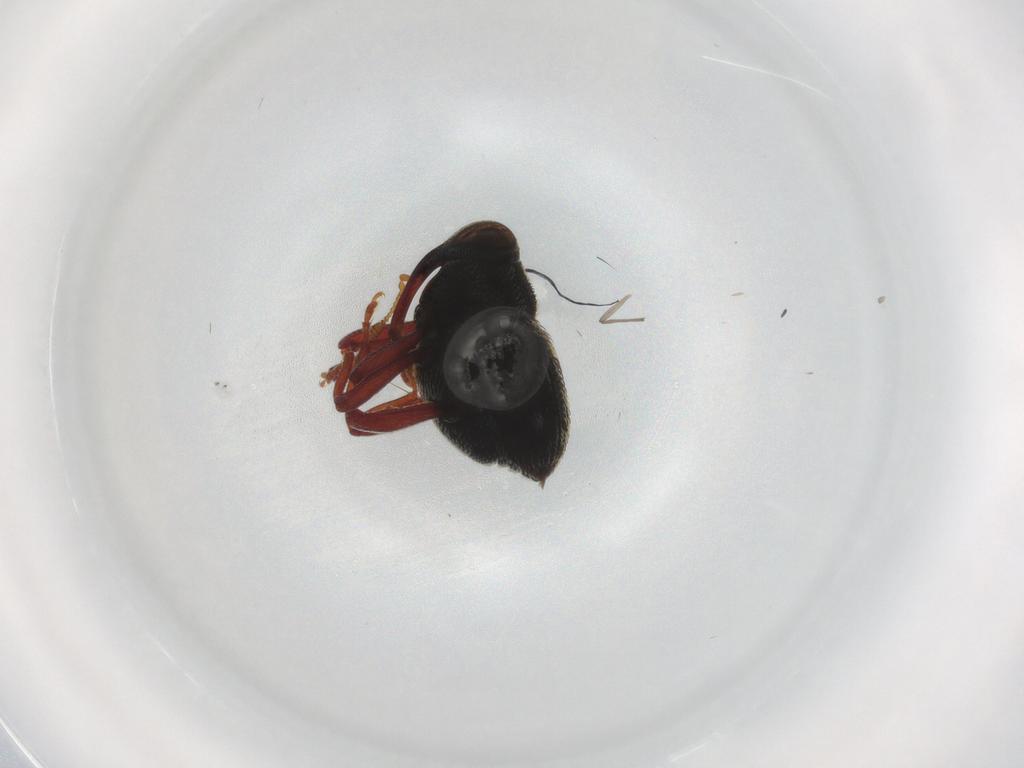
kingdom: Animalia
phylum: Arthropoda
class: Insecta
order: Coleoptera
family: Curculionidae
